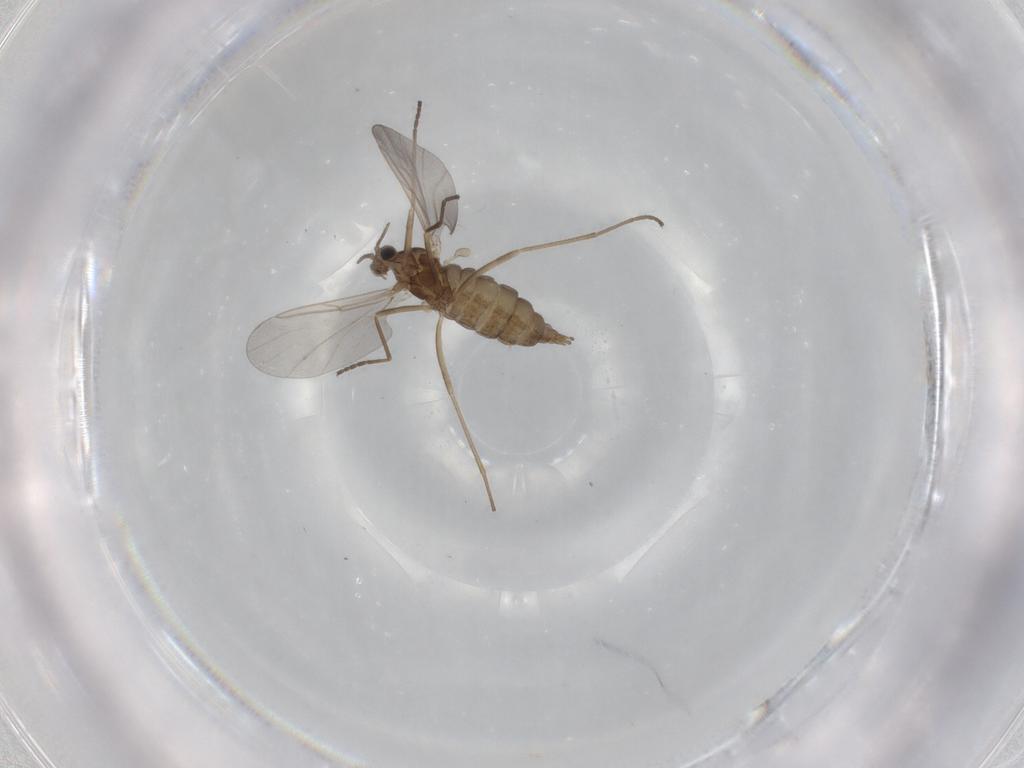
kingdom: Animalia
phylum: Arthropoda
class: Insecta
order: Diptera
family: Cecidomyiidae
